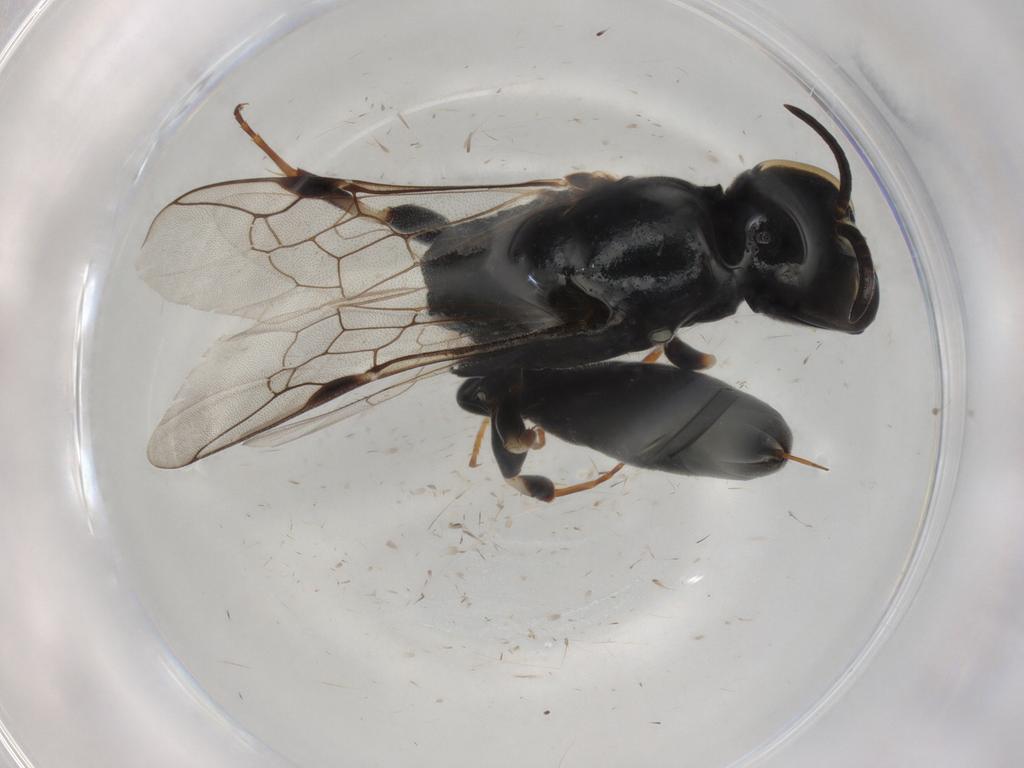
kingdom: Animalia
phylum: Arthropoda
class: Insecta
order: Hymenoptera
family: Crabronidae
